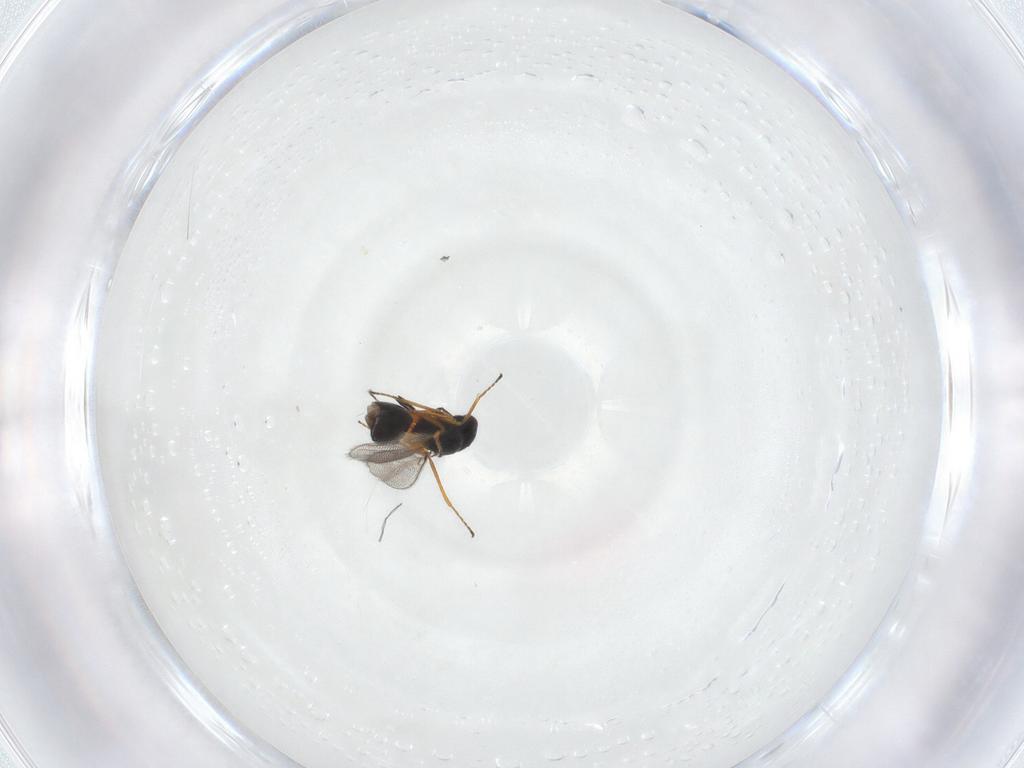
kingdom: Animalia
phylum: Arthropoda
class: Insecta
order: Hymenoptera
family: Mymaridae
